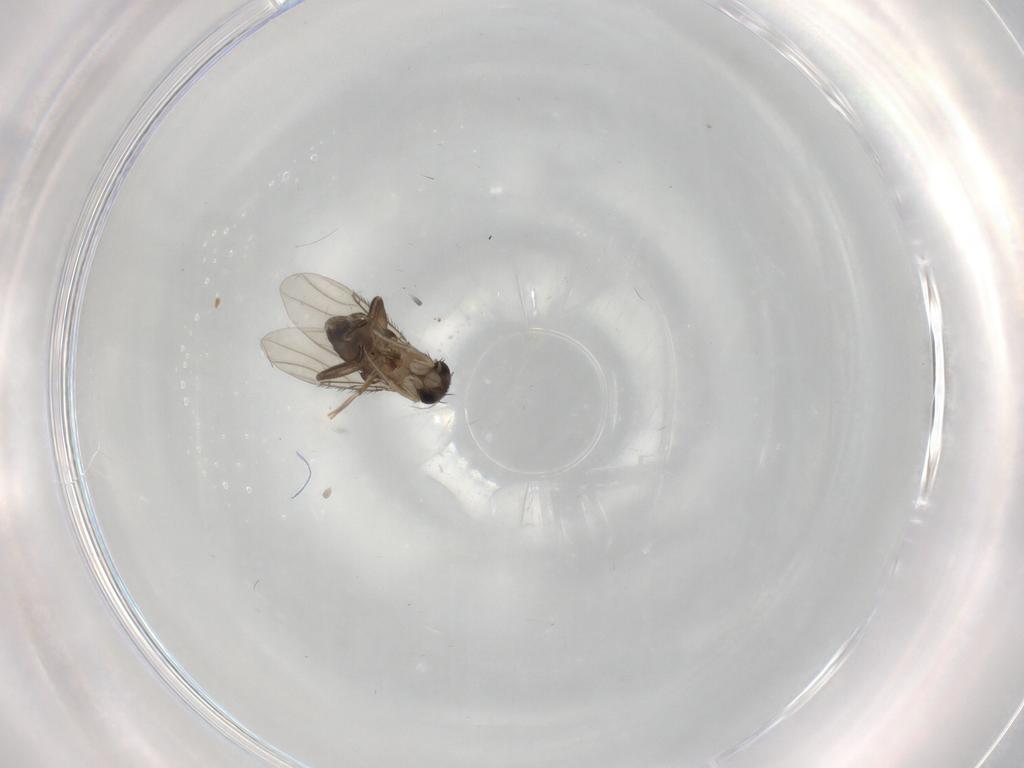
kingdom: Animalia
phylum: Arthropoda
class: Insecta
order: Diptera
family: Phoridae
